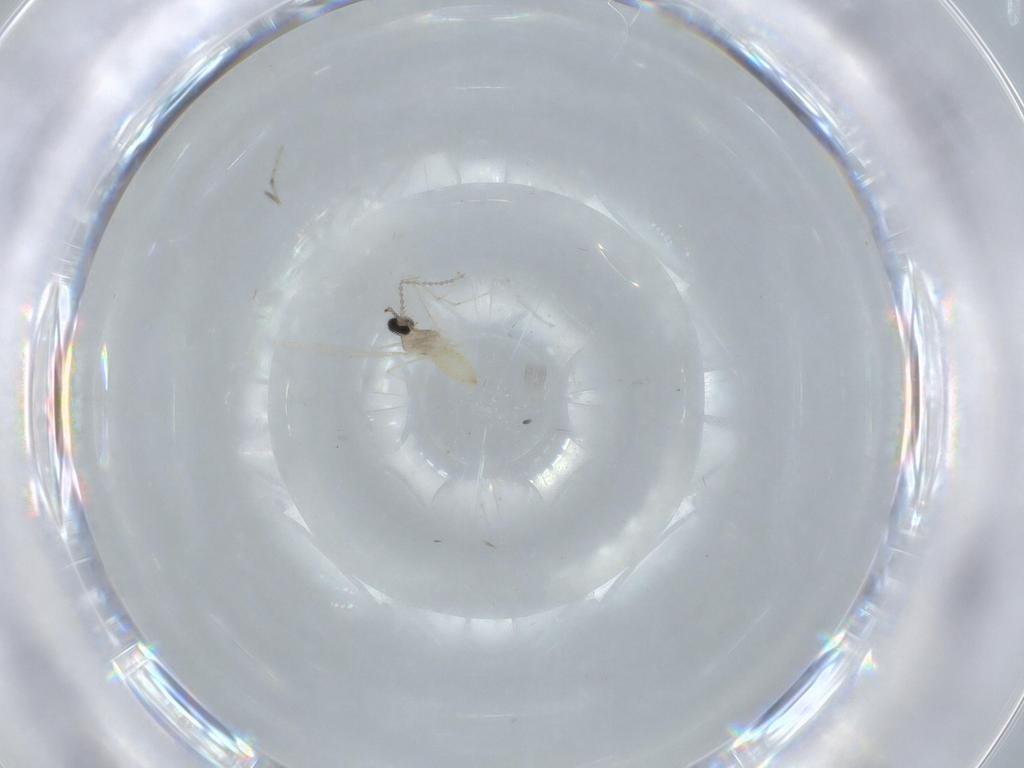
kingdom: Animalia
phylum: Arthropoda
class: Insecta
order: Diptera
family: Cecidomyiidae
